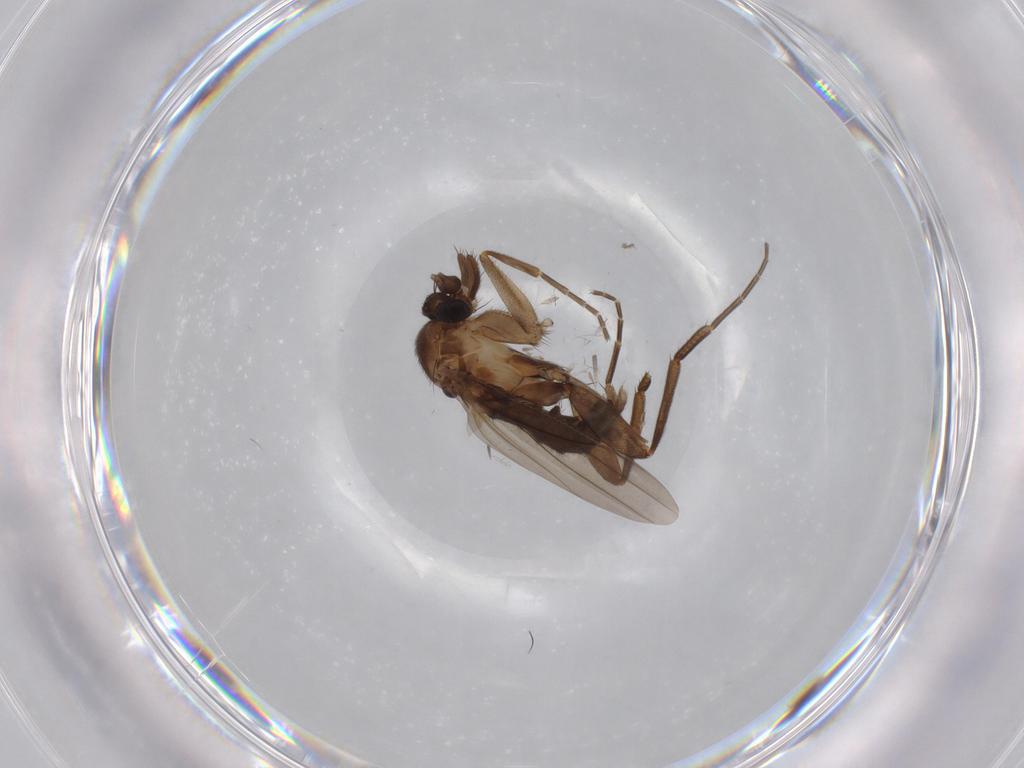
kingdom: Animalia
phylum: Arthropoda
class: Insecta
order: Diptera
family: Phoridae
